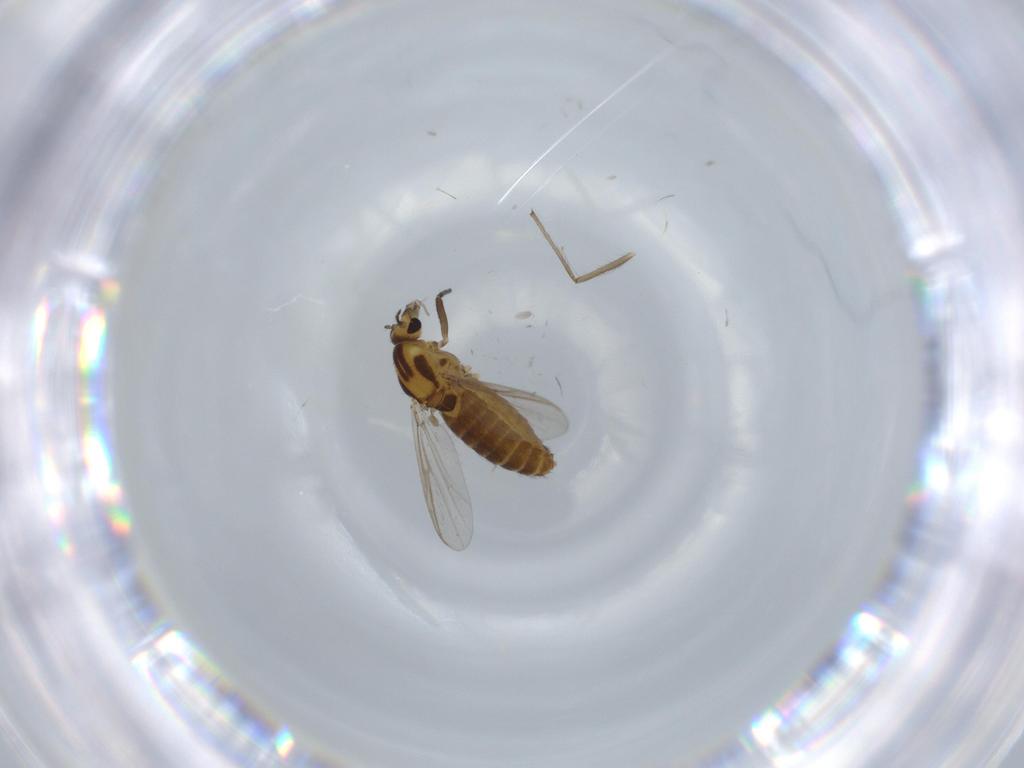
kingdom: Animalia
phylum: Arthropoda
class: Insecta
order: Diptera
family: Chironomidae
